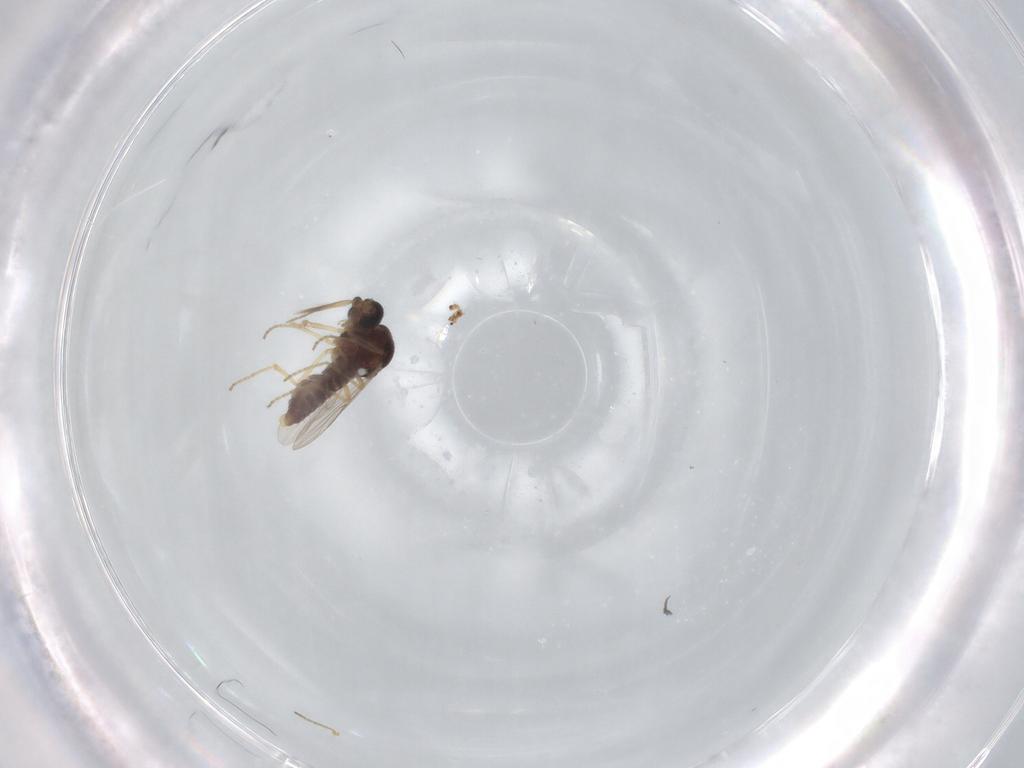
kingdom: Animalia
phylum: Arthropoda
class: Insecta
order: Diptera
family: Ceratopogonidae
